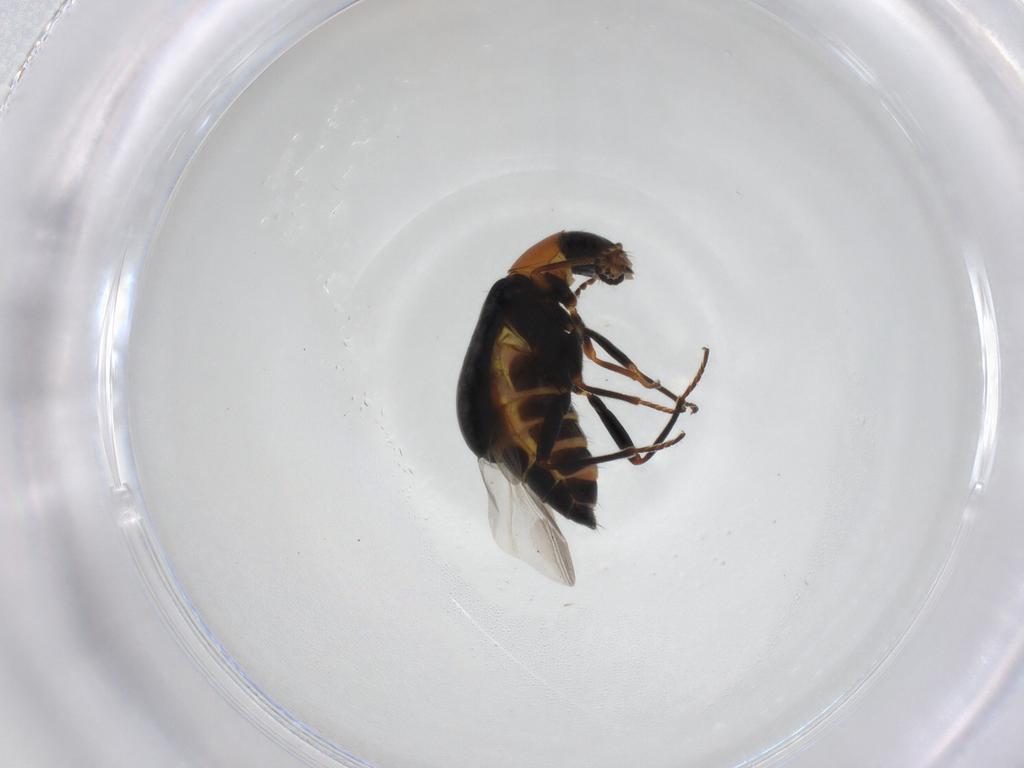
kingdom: Animalia
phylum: Arthropoda
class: Insecta
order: Coleoptera
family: Melyridae
